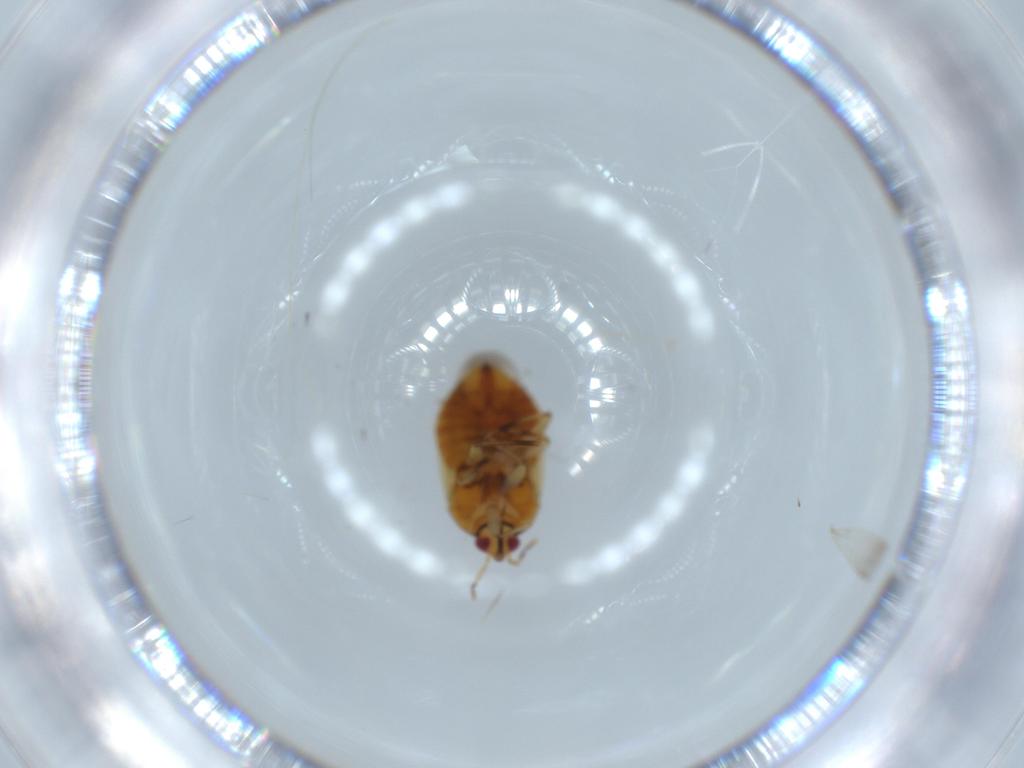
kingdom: Animalia
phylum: Arthropoda
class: Insecta
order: Hemiptera
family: Anthocoridae
